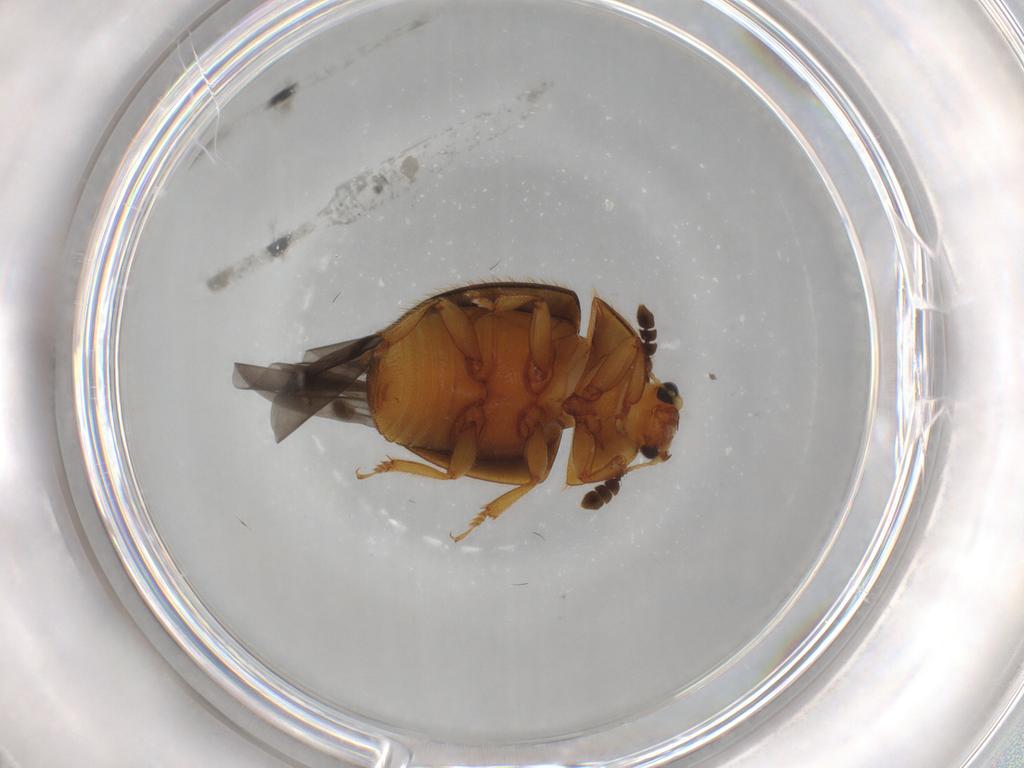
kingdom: Animalia
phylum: Arthropoda
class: Insecta
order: Coleoptera
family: Nitidulidae
